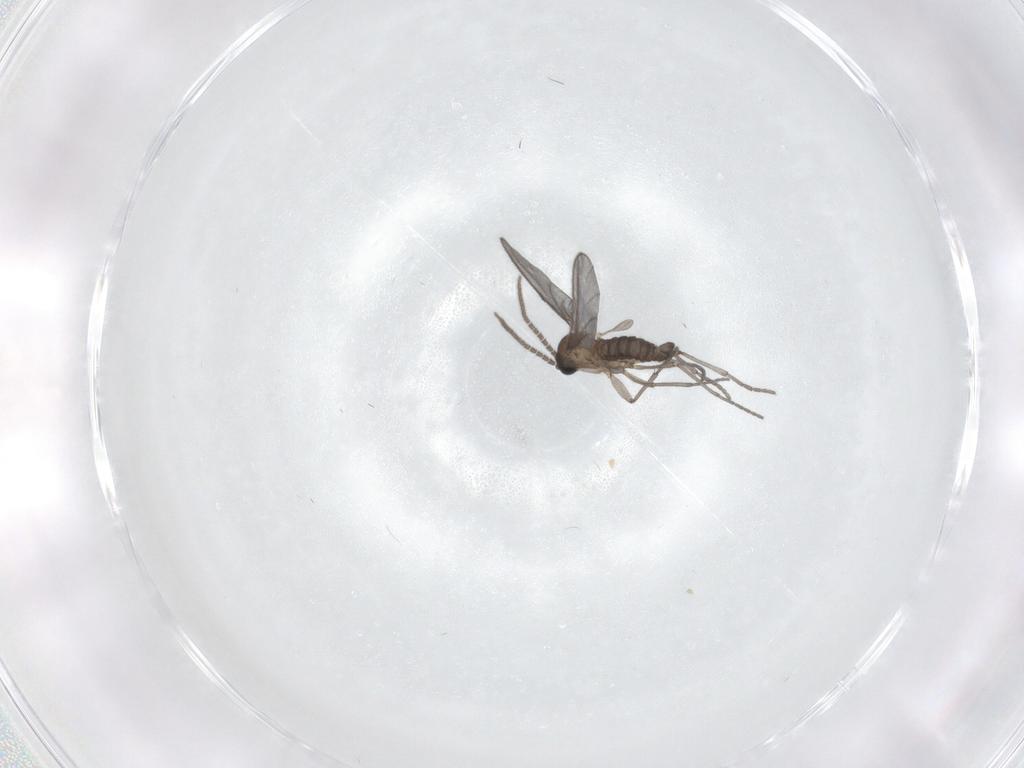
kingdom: Animalia
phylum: Arthropoda
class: Insecta
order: Diptera
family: Sciaridae
